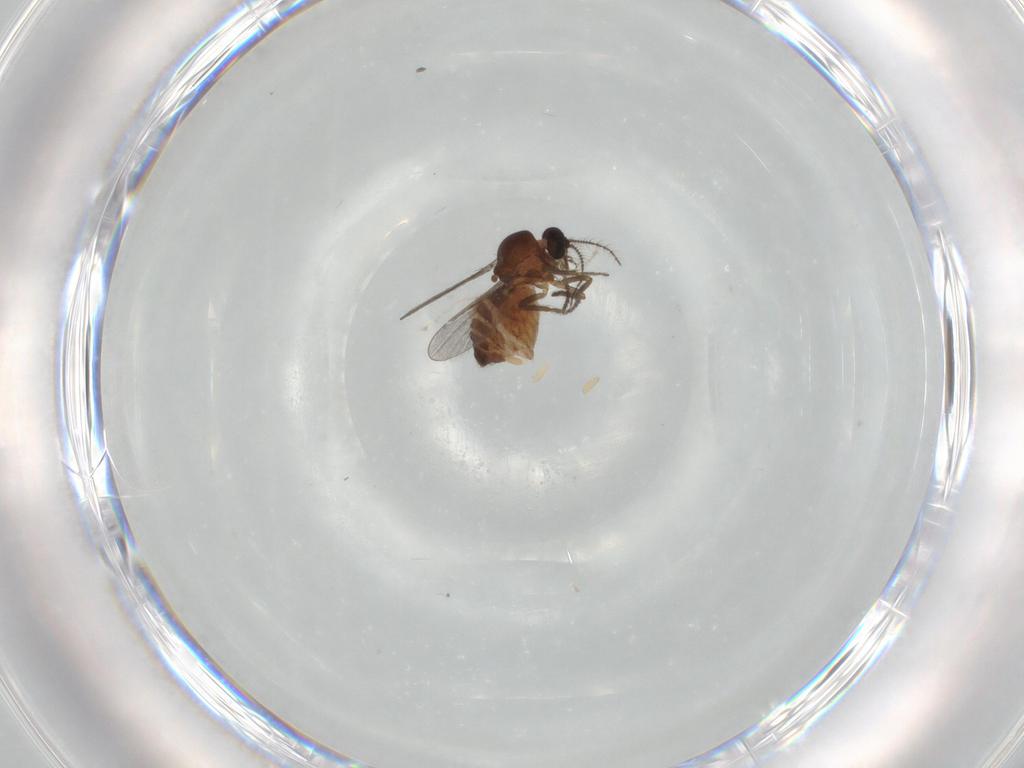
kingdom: Animalia
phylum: Arthropoda
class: Insecta
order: Diptera
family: Ceratopogonidae
